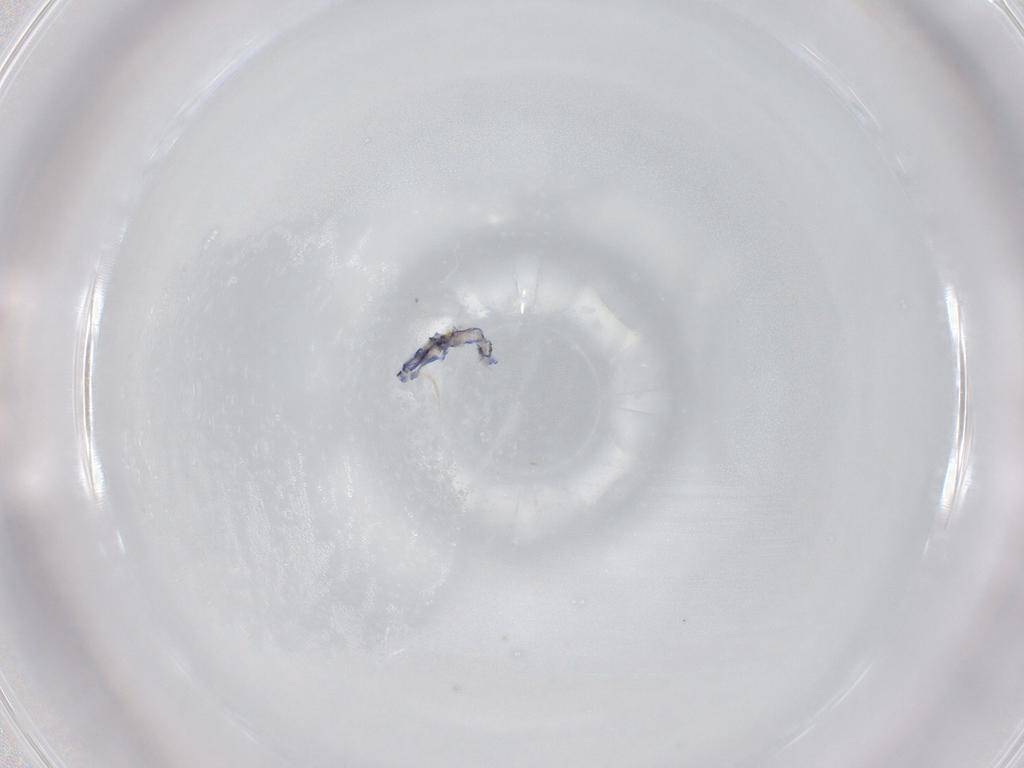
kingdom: Animalia
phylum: Arthropoda
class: Collembola
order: Entomobryomorpha
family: Entomobryidae
